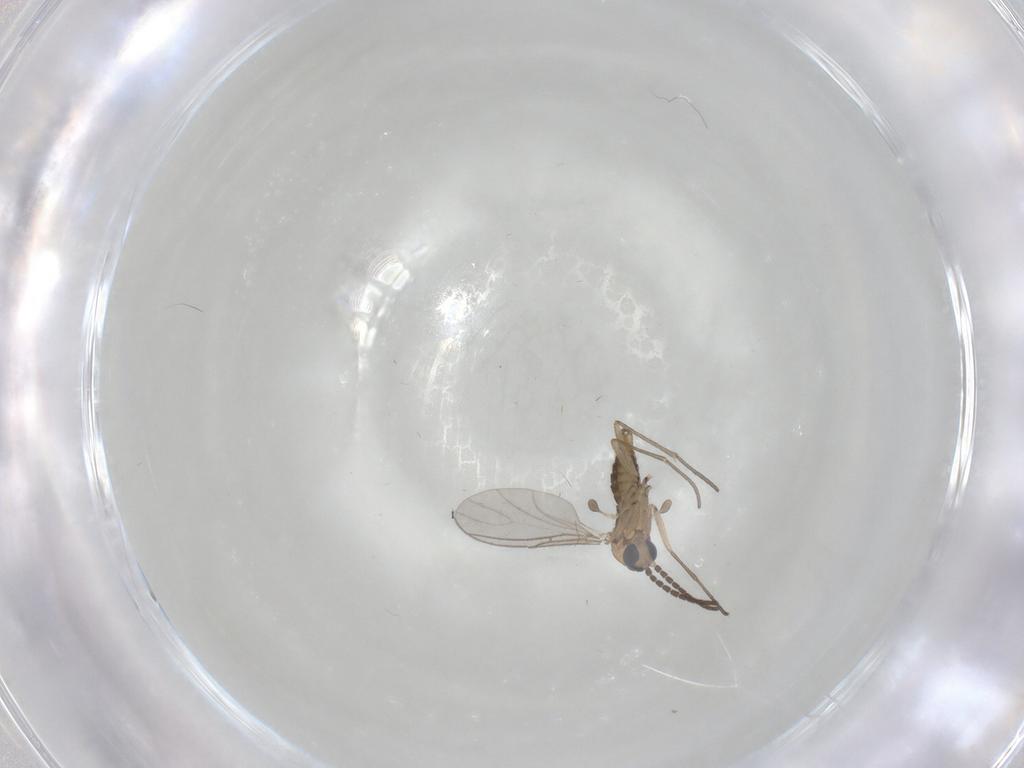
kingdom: Animalia
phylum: Arthropoda
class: Insecta
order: Diptera
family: Sciaridae
